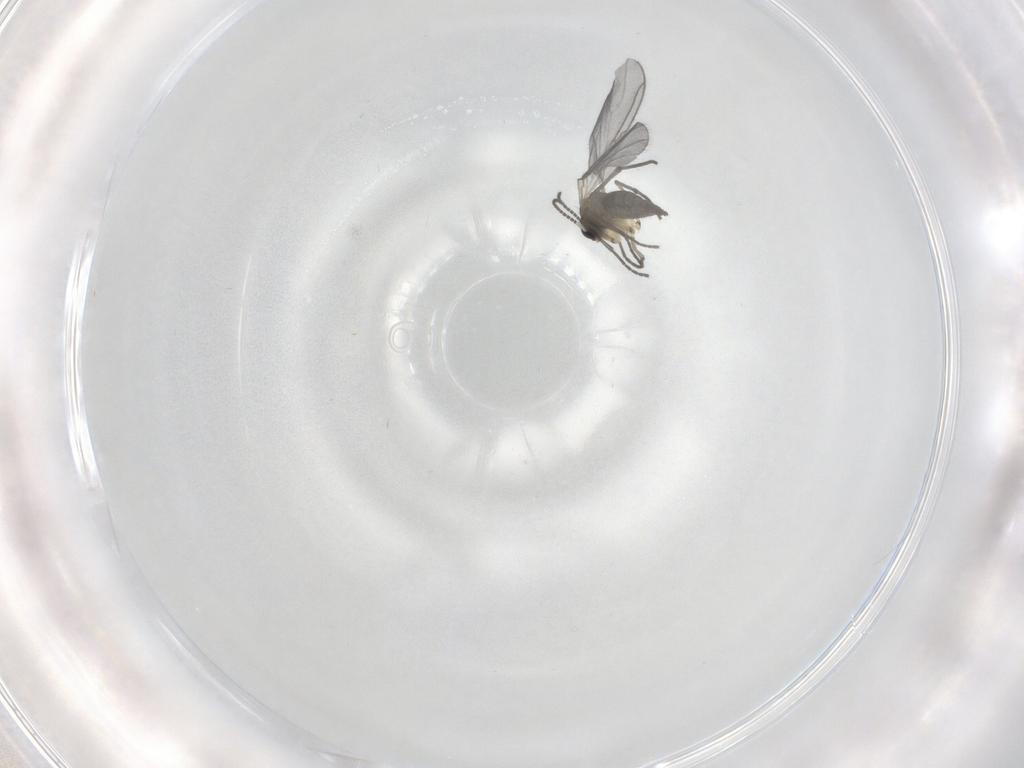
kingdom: Animalia
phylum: Arthropoda
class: Insecta
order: Diptera
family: Sciaridae
